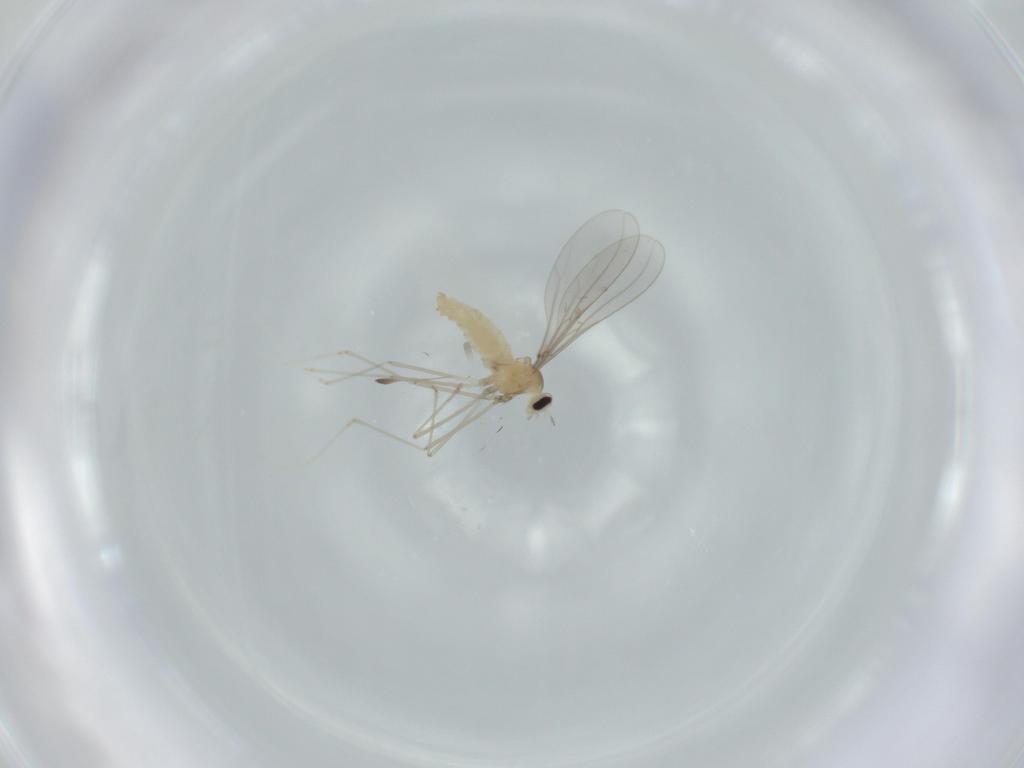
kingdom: Animalia
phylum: Arthropoda
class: Insecta
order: Diptera
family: Cecidomyiidae
